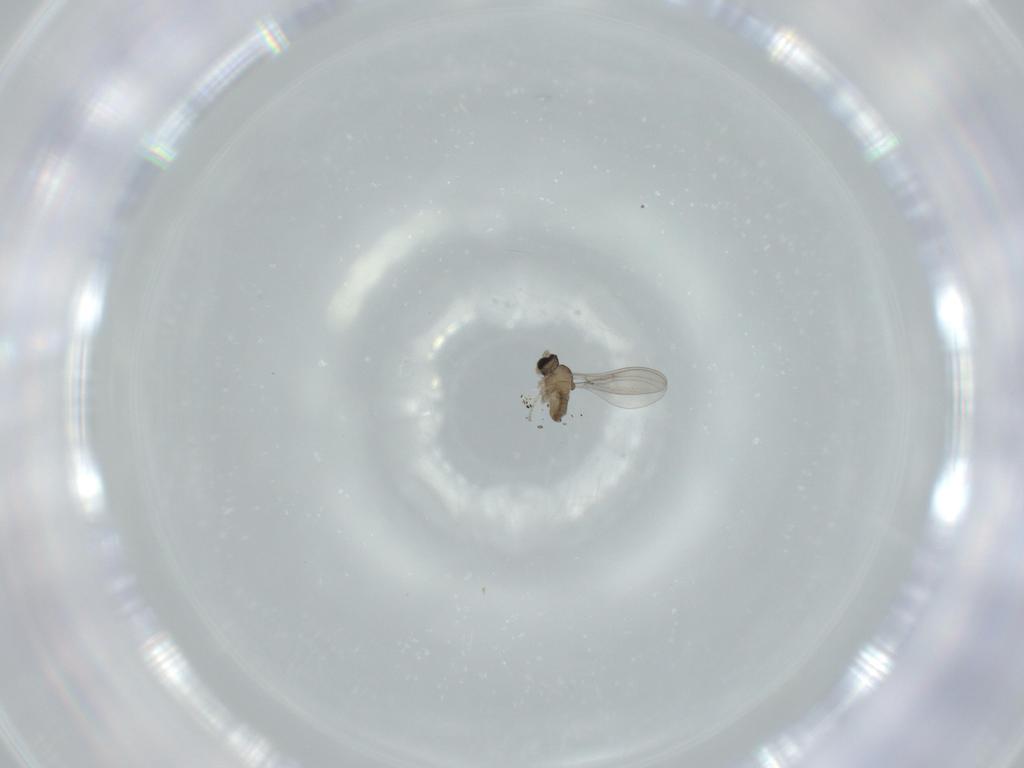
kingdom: Animalia
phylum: Arthropoda
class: Insecta
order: Diptera
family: Cecidomyiidae
